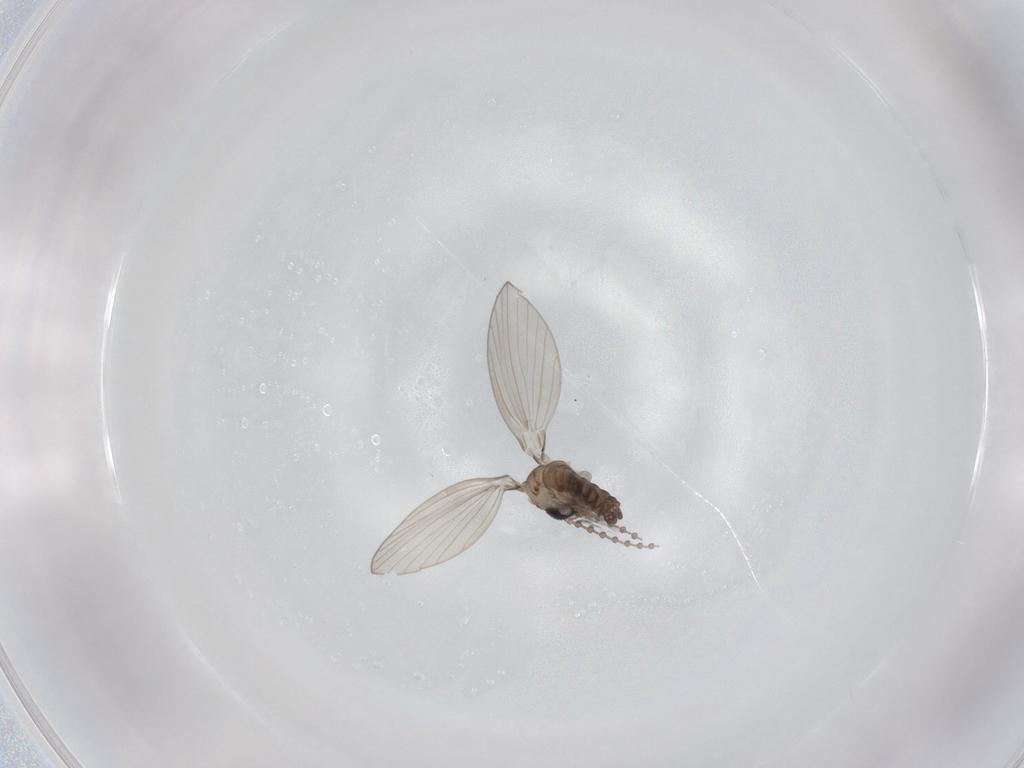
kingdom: Animalia
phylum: Arthropoda
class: Insecta
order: Diptera
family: Psychodidae
